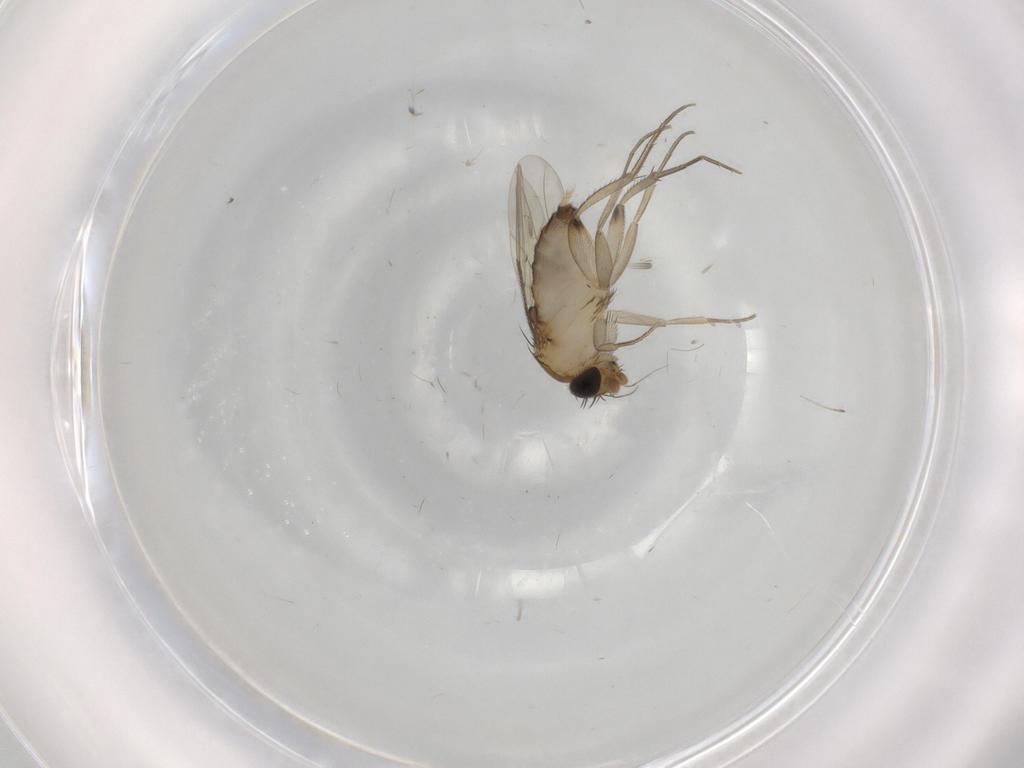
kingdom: Animalia
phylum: Arthropoda
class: Insecta
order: Diptera
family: Phoridae
